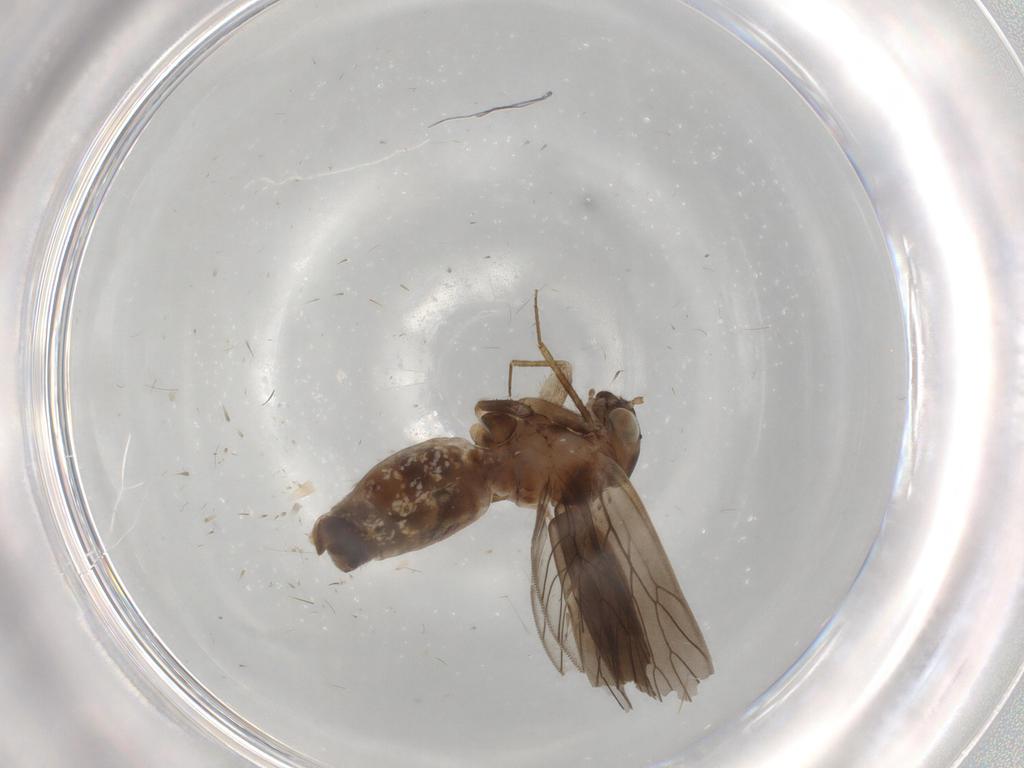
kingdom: Animalia
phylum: Arthropoda
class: Insecta
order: Psocodea
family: Lepidopsocidae
